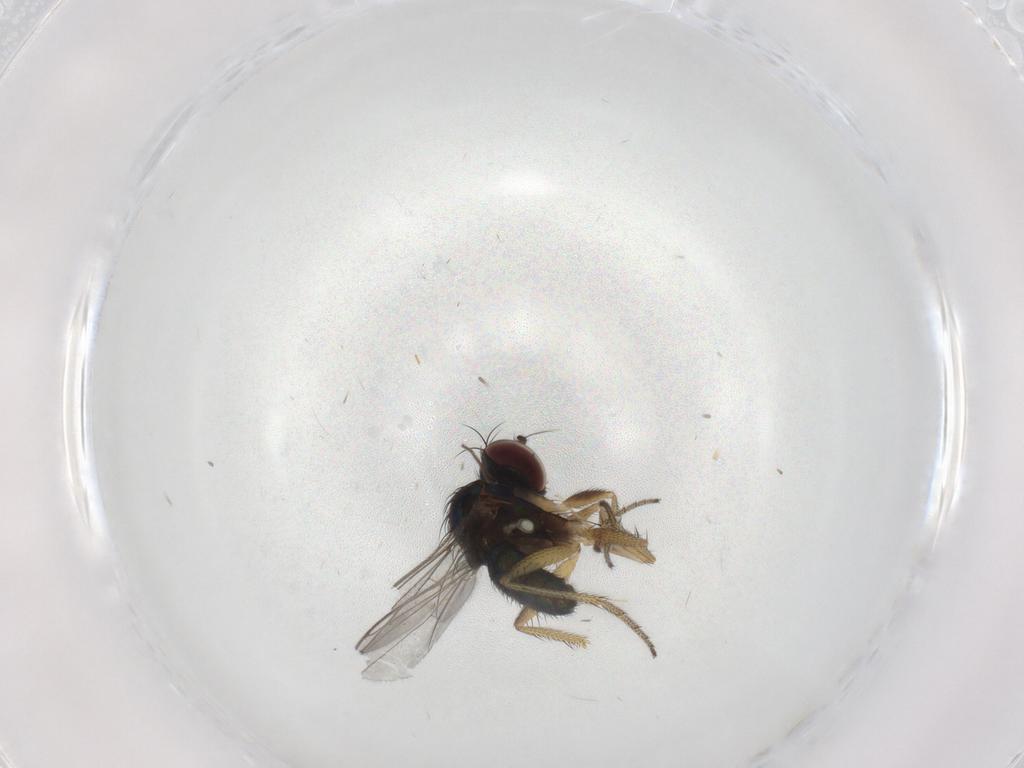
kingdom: Animalia
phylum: Arthropoda
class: Insecta
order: Diptera
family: Dolichopodidae
